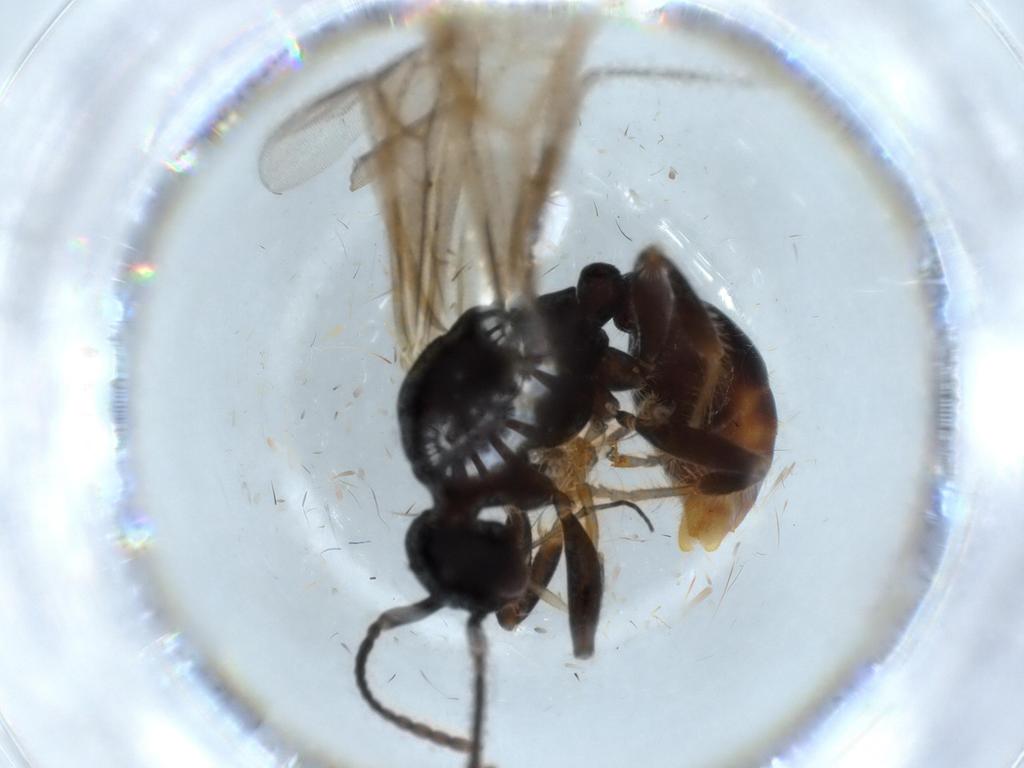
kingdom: Animalia
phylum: Arthropoda
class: Insecta
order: Hymenoptera
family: Formicidae
